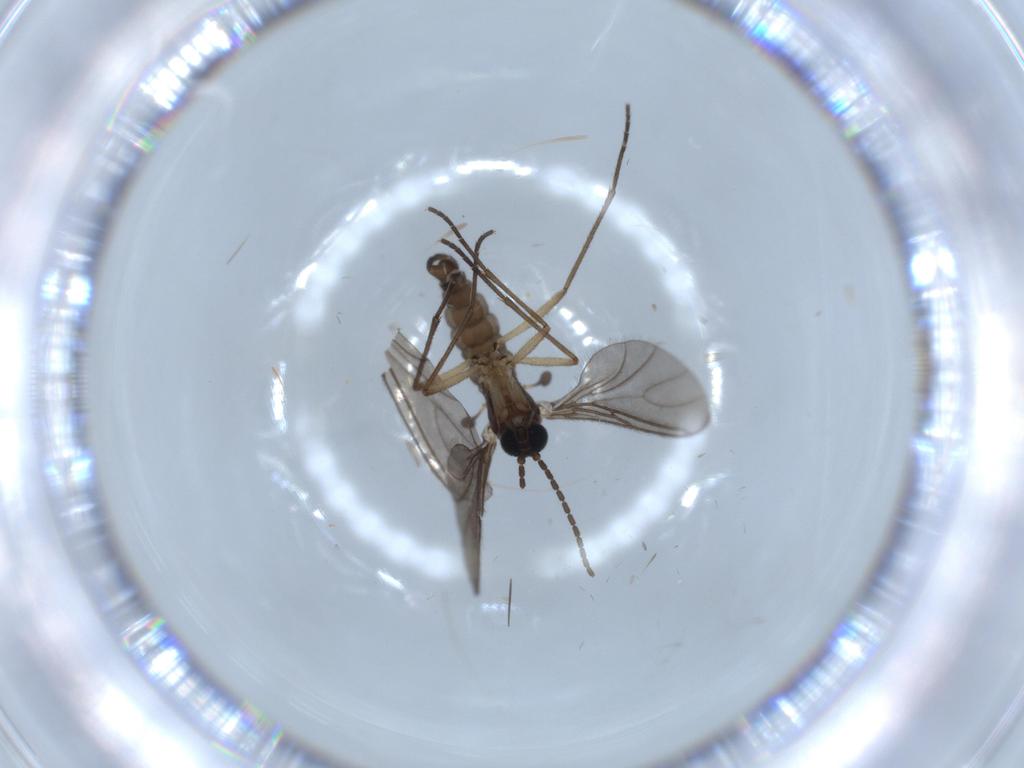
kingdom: Animalia
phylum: Arthropoda
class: Insecta
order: Diptera
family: Sciaridae
